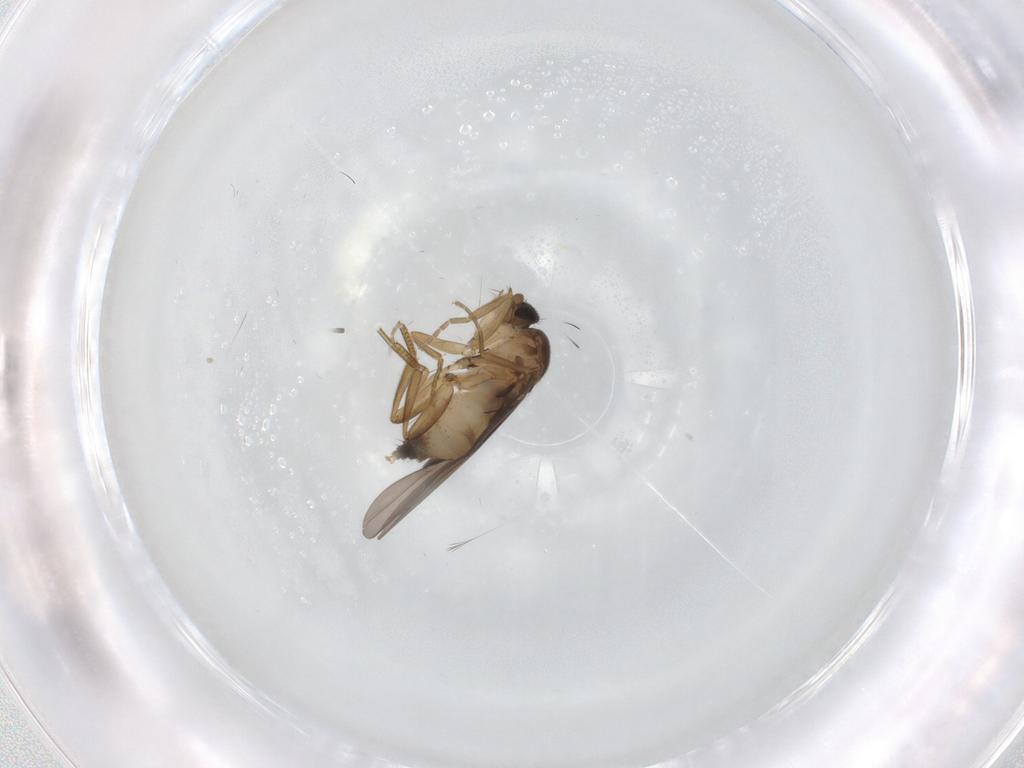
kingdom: Animalia
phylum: Arthropoda
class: Insecta
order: Diptera
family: Phoridae
